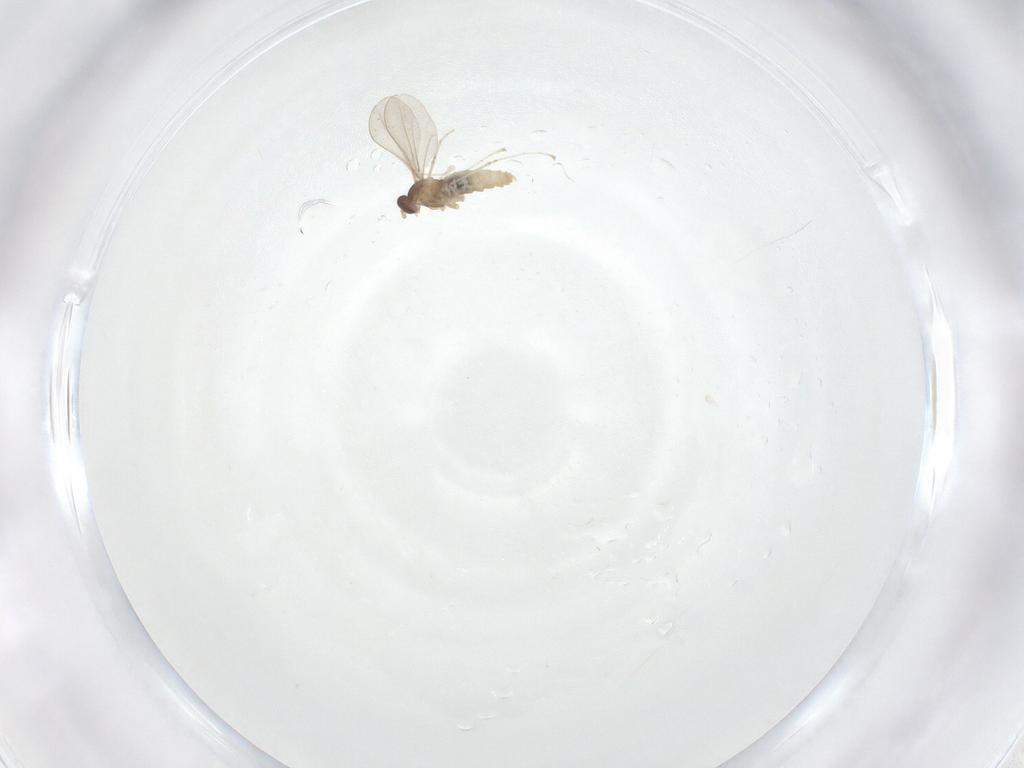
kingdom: Animalia
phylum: Arthropoda
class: Insecta
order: Diptera
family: Cecidomyiidae
